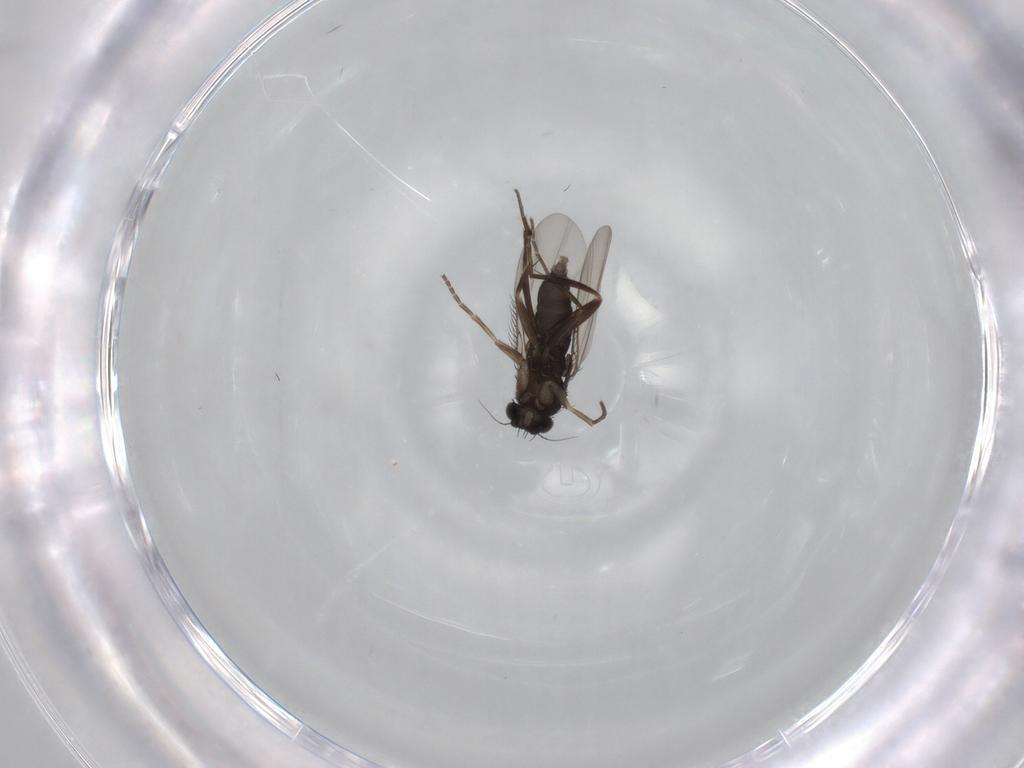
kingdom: Animalia
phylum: Arthropoda
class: Insecta
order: Diptera
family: Phoridae
